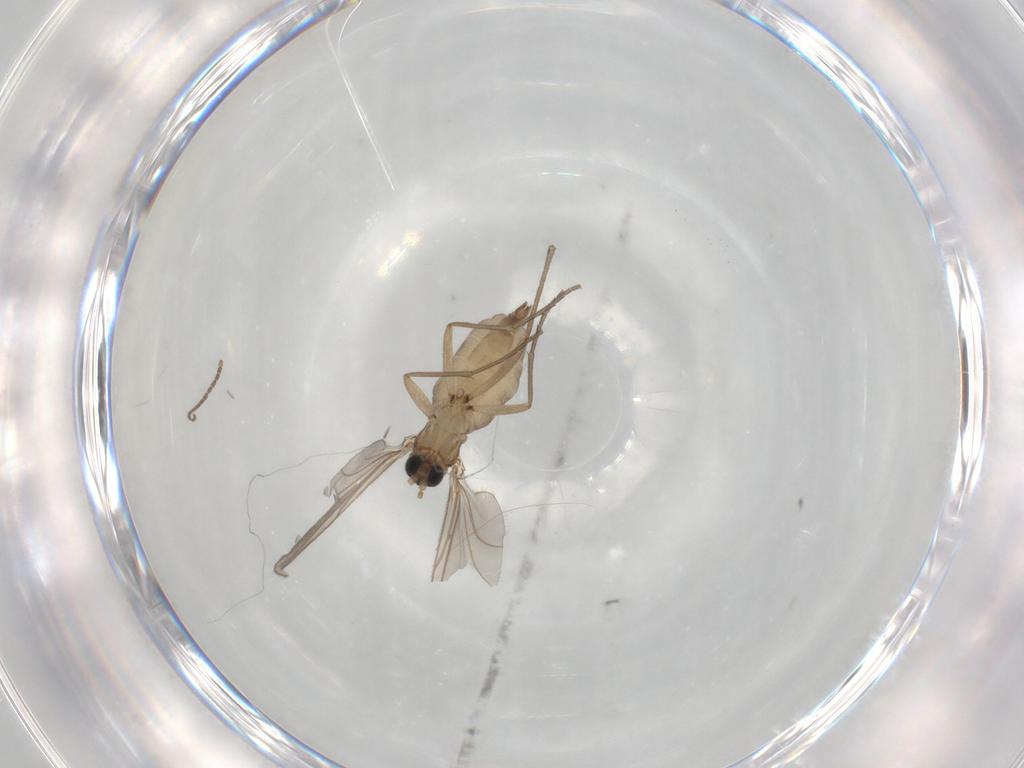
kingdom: Animalia
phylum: Arthropoda
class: Insecta
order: Diptera
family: Sciaridae
